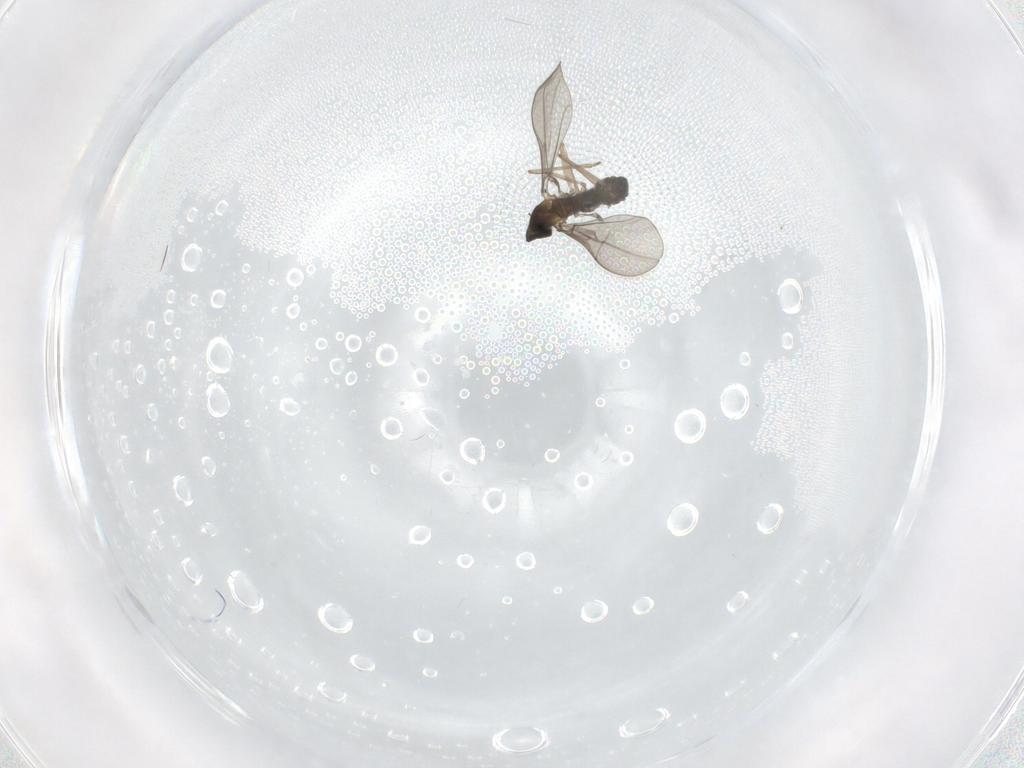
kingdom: Animalia
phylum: Arthropoda
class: Insecta
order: Diptera
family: Cecidomyiidae
